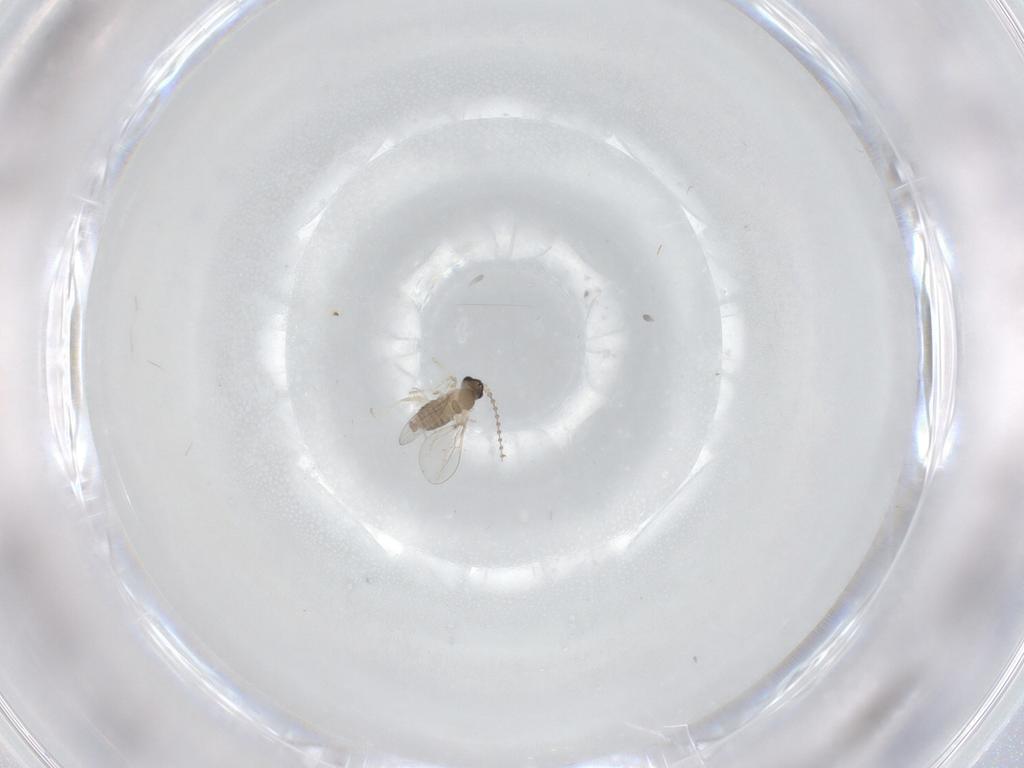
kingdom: Animalia
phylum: Arthropoda
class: Insecta
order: Diptera
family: Cecidomyiidae
